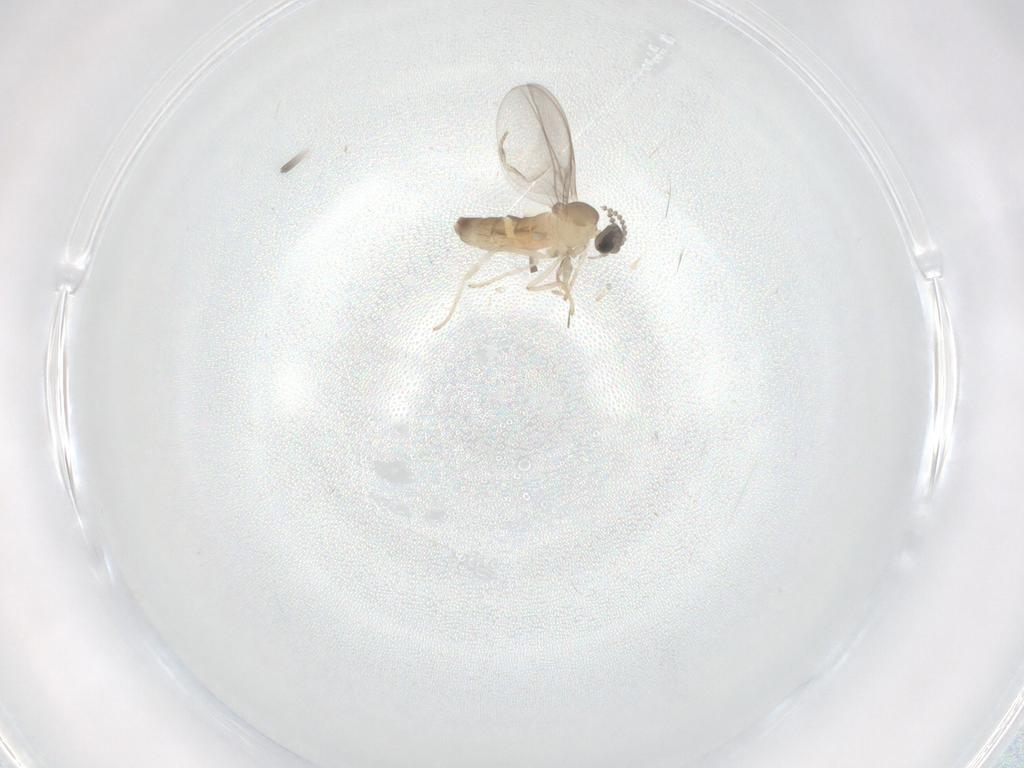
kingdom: Animalia
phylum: Arthropoda
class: Insecta
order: Diptera
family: Cecidomyiidae
